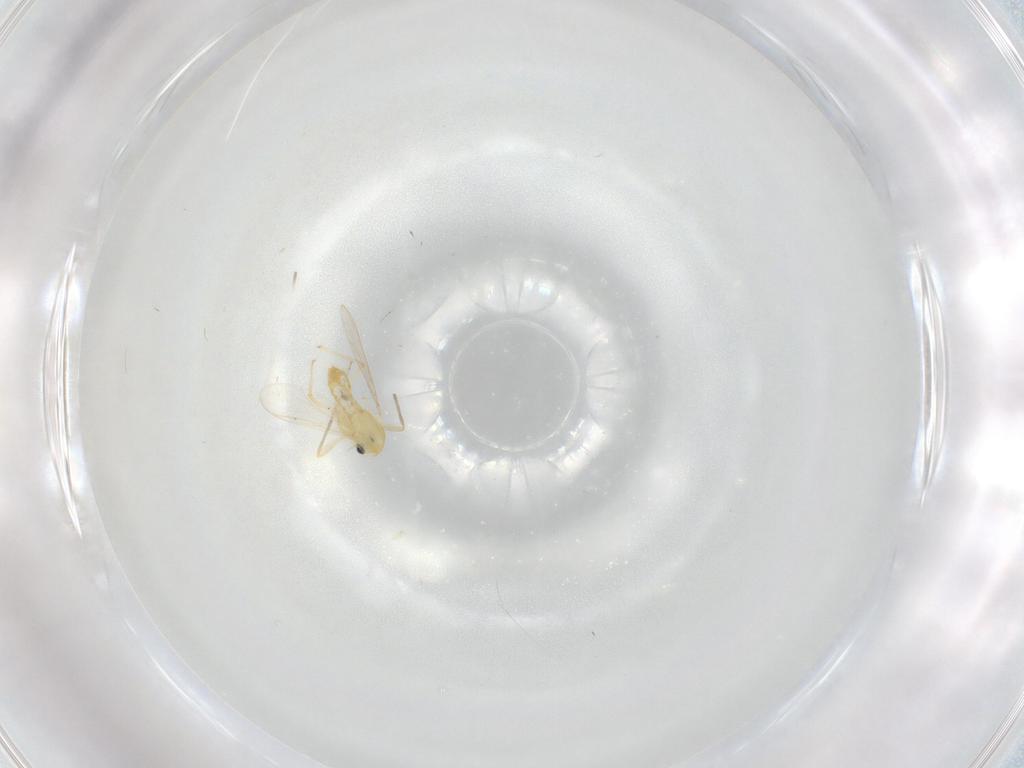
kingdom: Animalia
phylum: Arthropoda
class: Insecta
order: Diptera
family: Chironomidae
